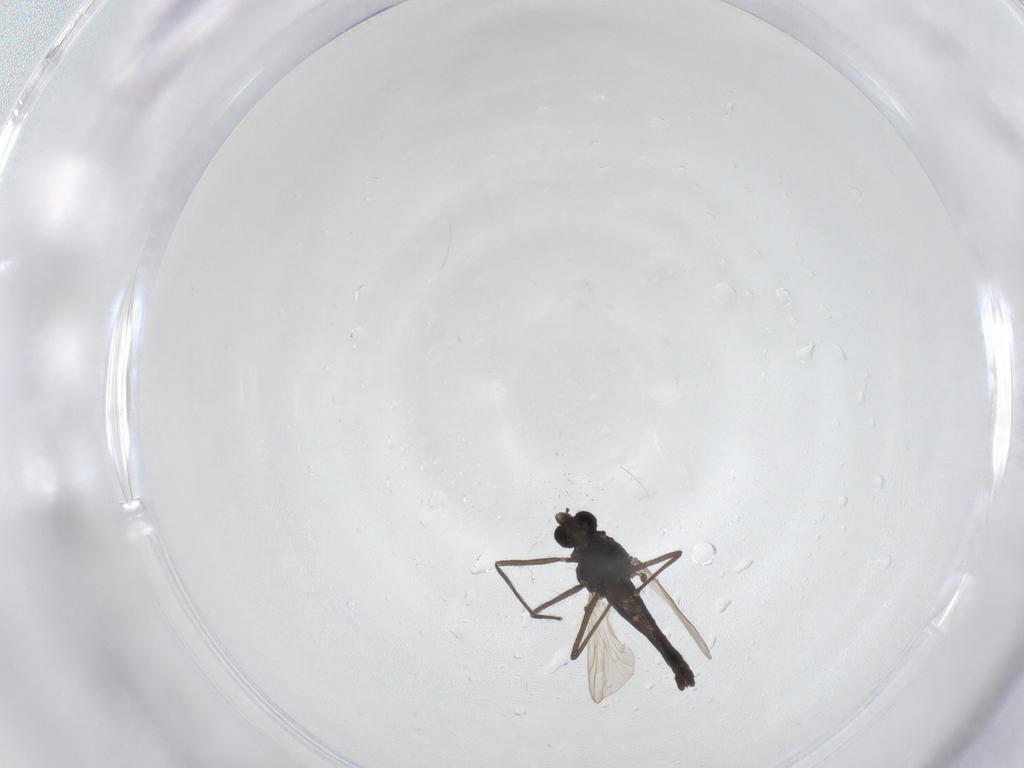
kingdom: Animalia
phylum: Arthropoda
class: Insecta
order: Diptera
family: Chironomidae
